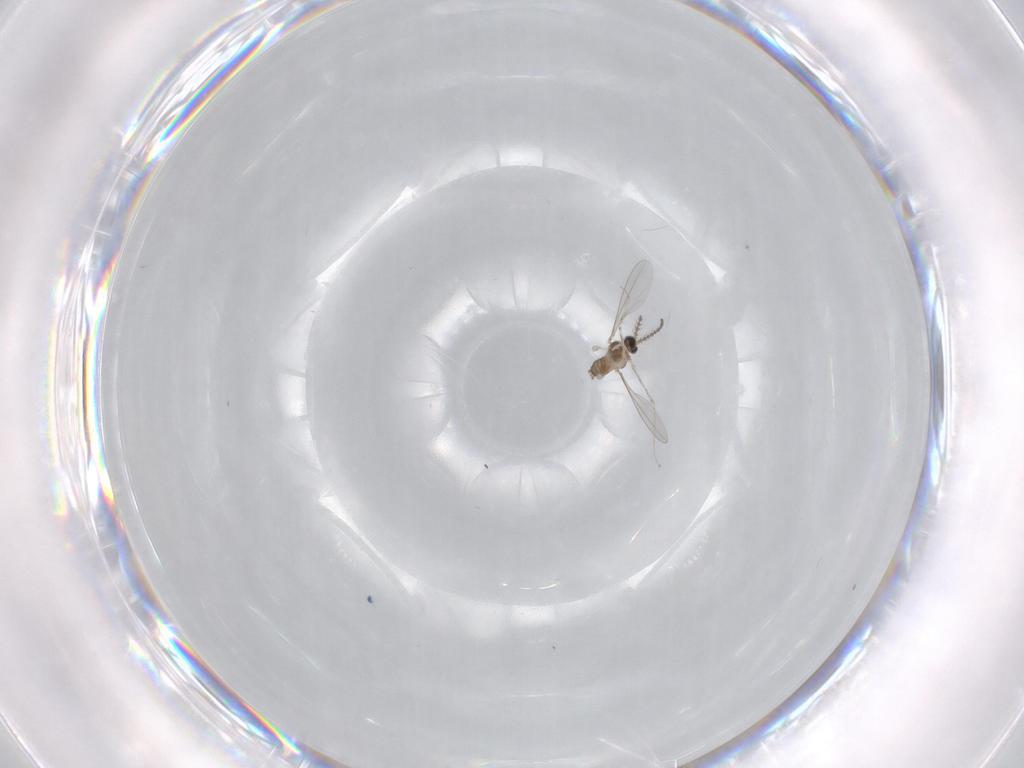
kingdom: Animalia
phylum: Arthropoda
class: Insecta
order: Diptera
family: Cecidomyiidae
